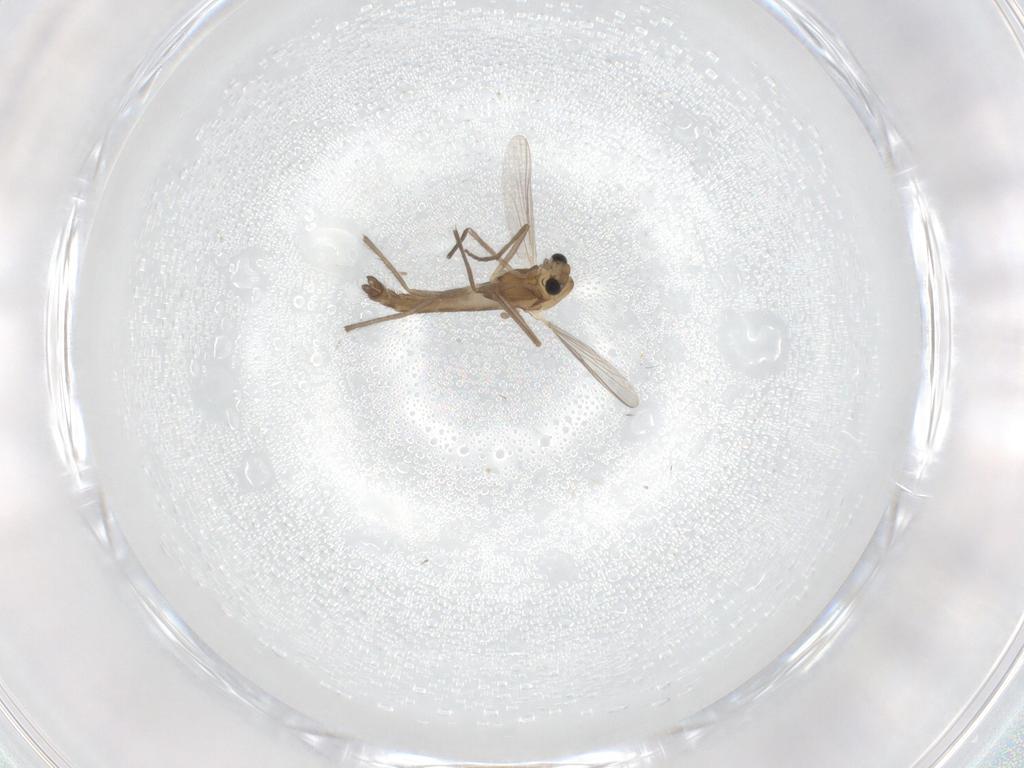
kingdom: Animalia
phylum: Arthropoda
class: Insecta
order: Diptera
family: Chironomidae
